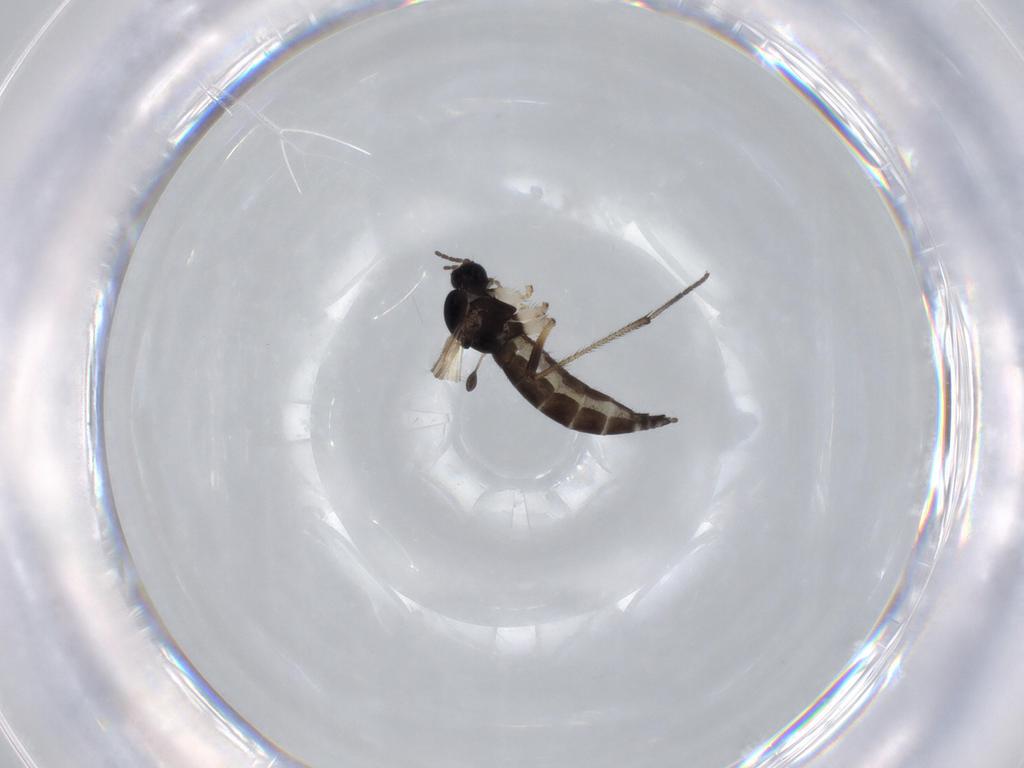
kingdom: Animalia
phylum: Arthropoda
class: Insecta
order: Diptera
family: Sciaridae
